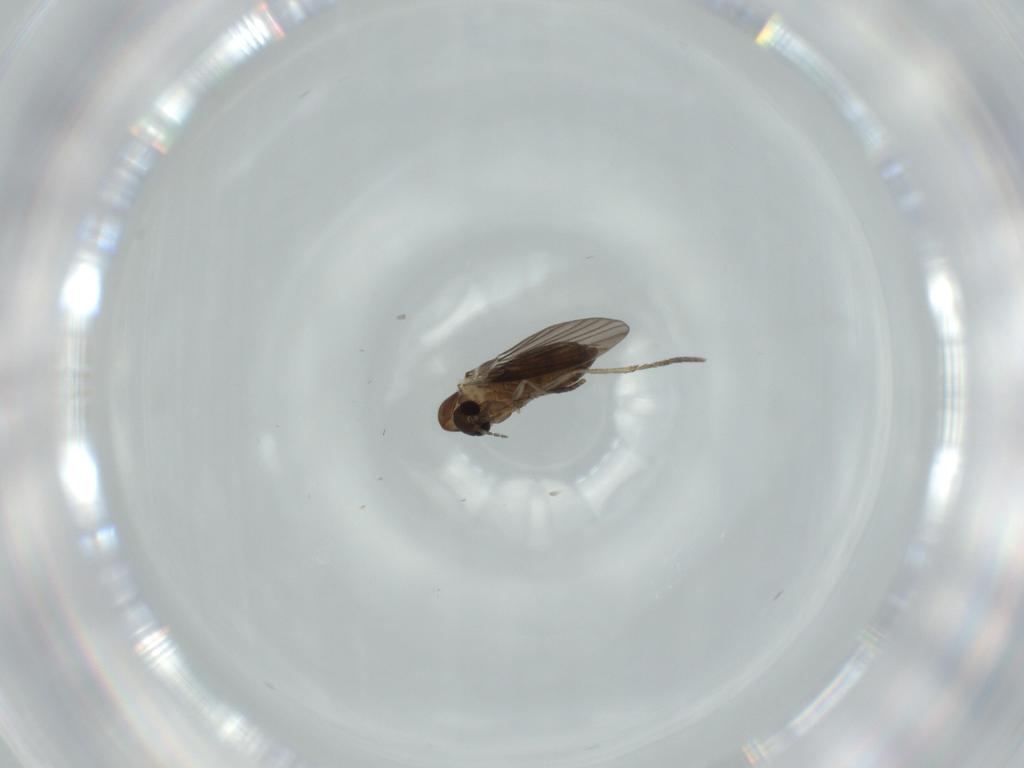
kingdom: Animalia
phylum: Arthropoda
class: Insecta
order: Diptera
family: Psychodidae
